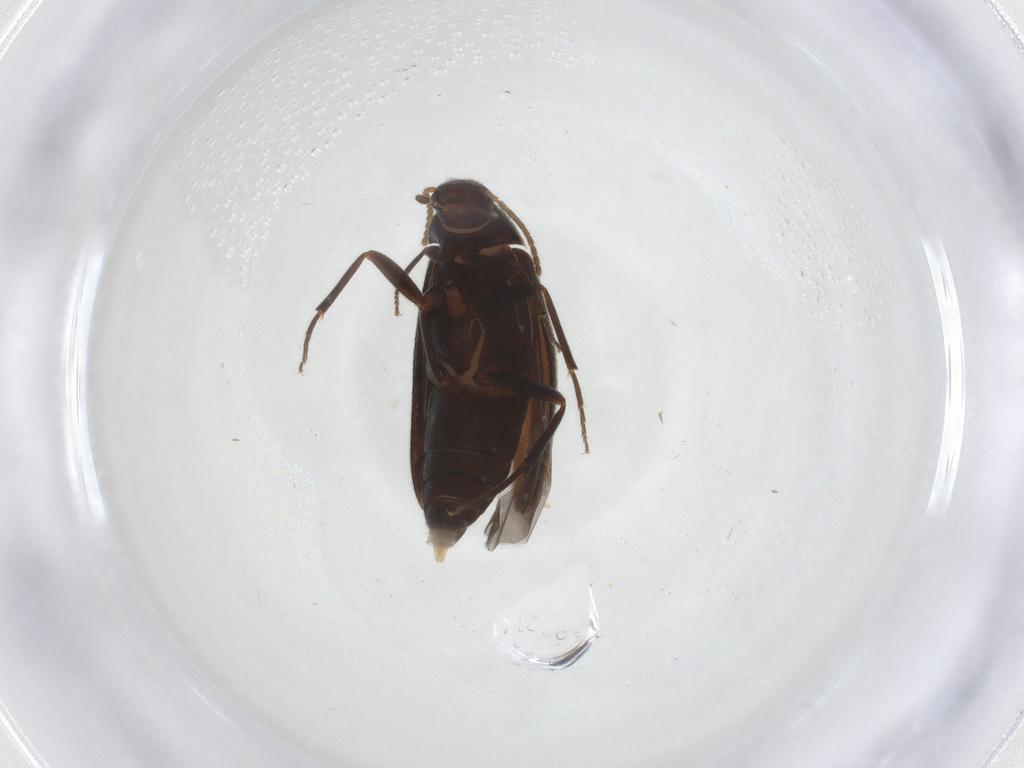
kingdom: Animalia
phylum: Arthropoda
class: Insecta
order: Coleoptera
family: Melandryidae
